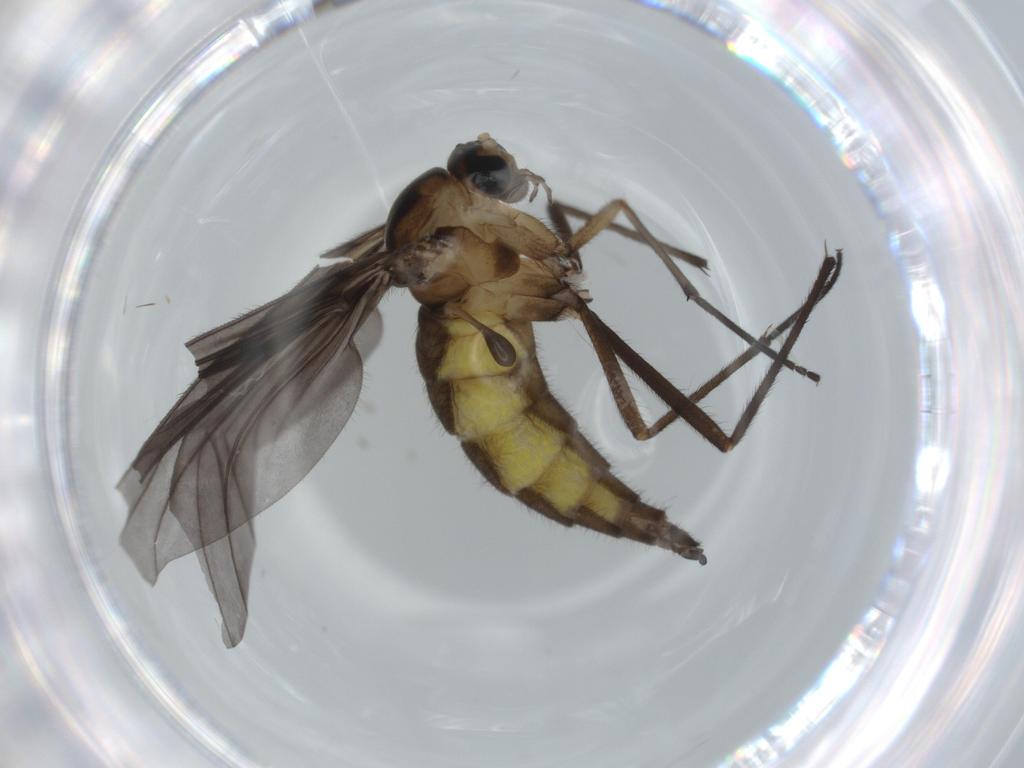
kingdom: Animalia
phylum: Arthropoda
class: Insecta
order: Diptera
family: Sciaridae
